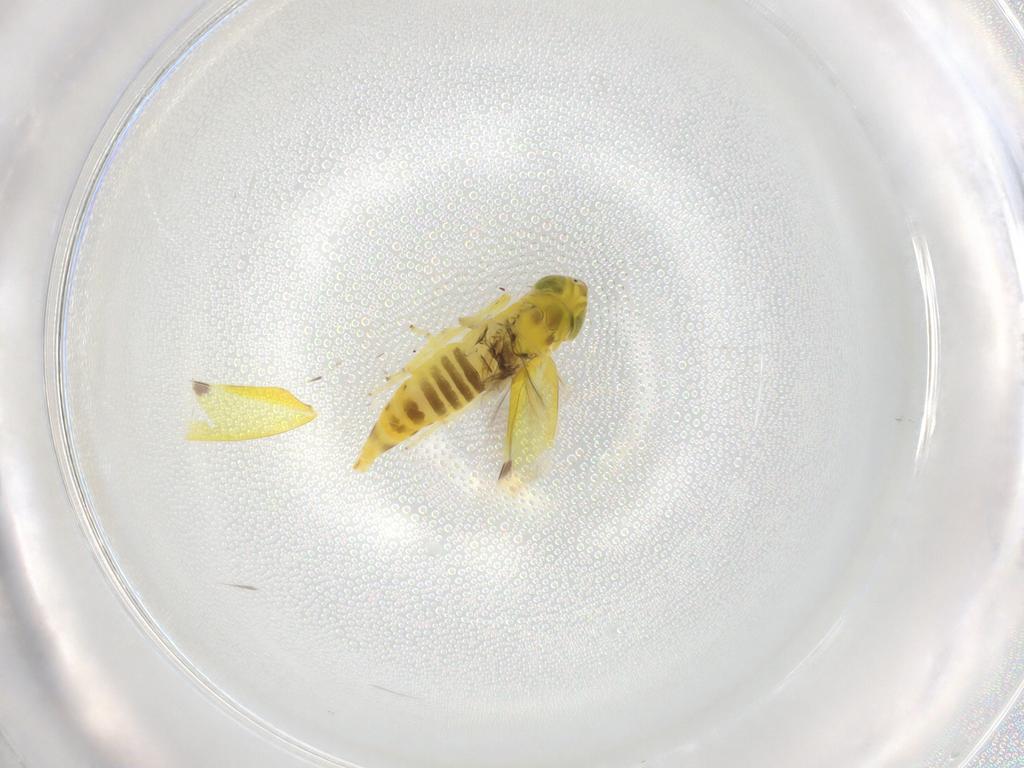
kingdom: Animalia
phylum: Arthropoda
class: Insecta
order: Hemiptera
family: Cicadellidae
